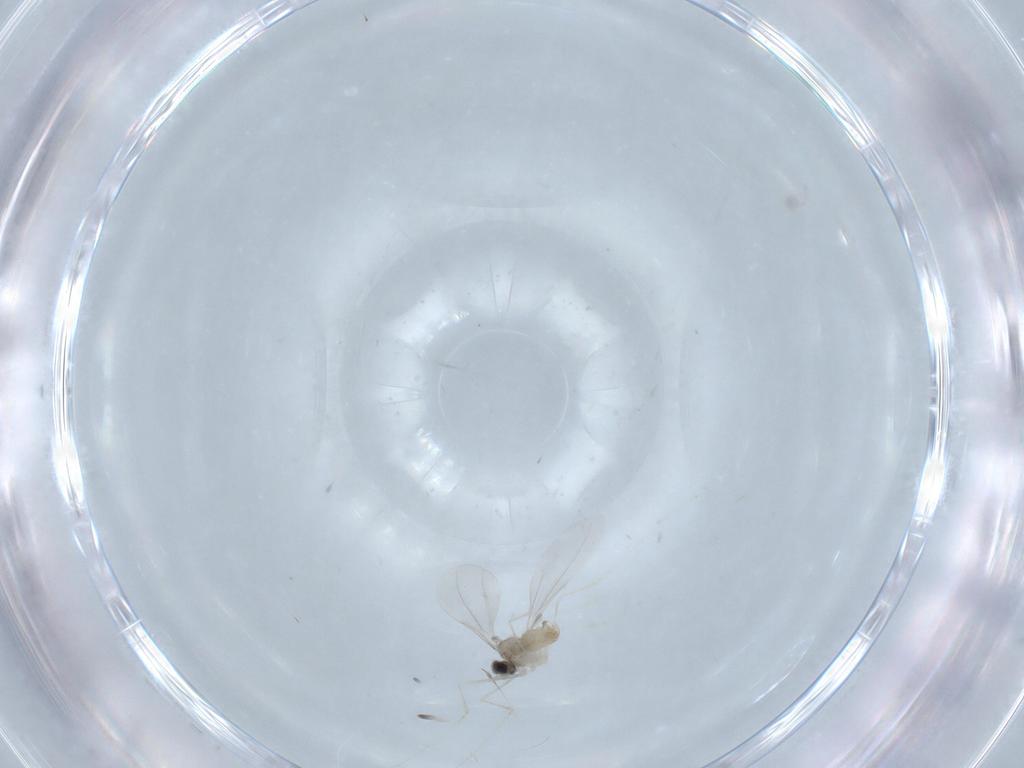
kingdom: Animalia
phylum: Arthropoda
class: Insecta
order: Diptera
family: Cecidomyiidae
